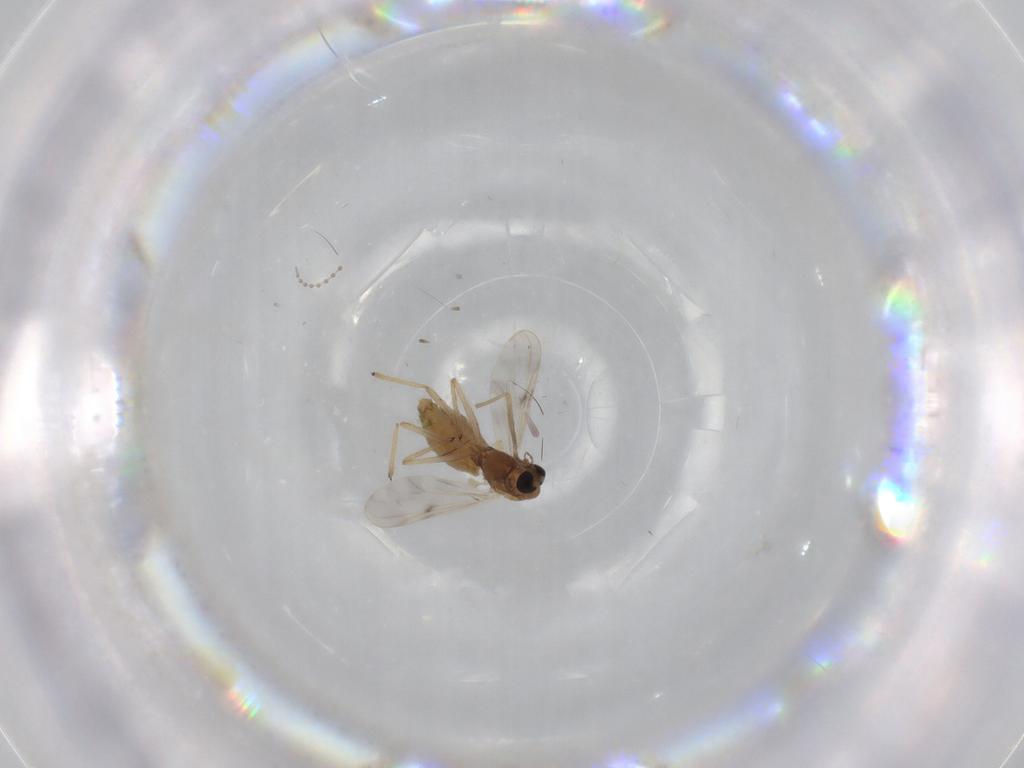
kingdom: Animalia
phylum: Arthropoda
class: Insecta
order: Diptera
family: Chironomidae
